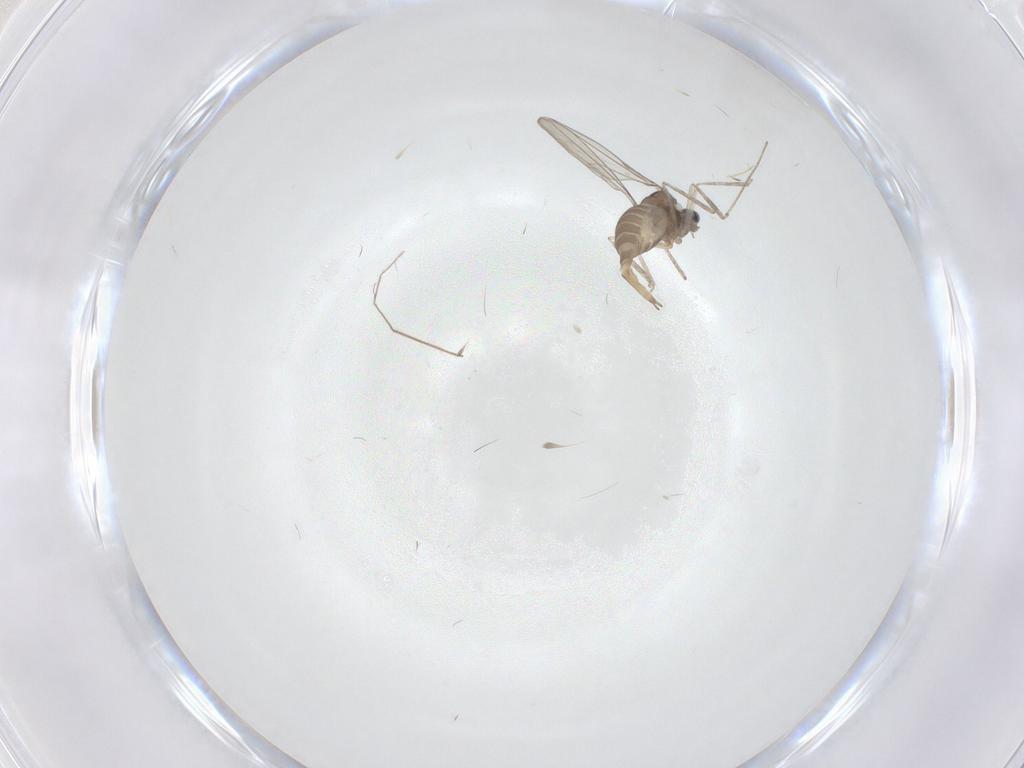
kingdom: Animalia
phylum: Arthropoda
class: Insecta
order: Diptera
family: Chironomidae
